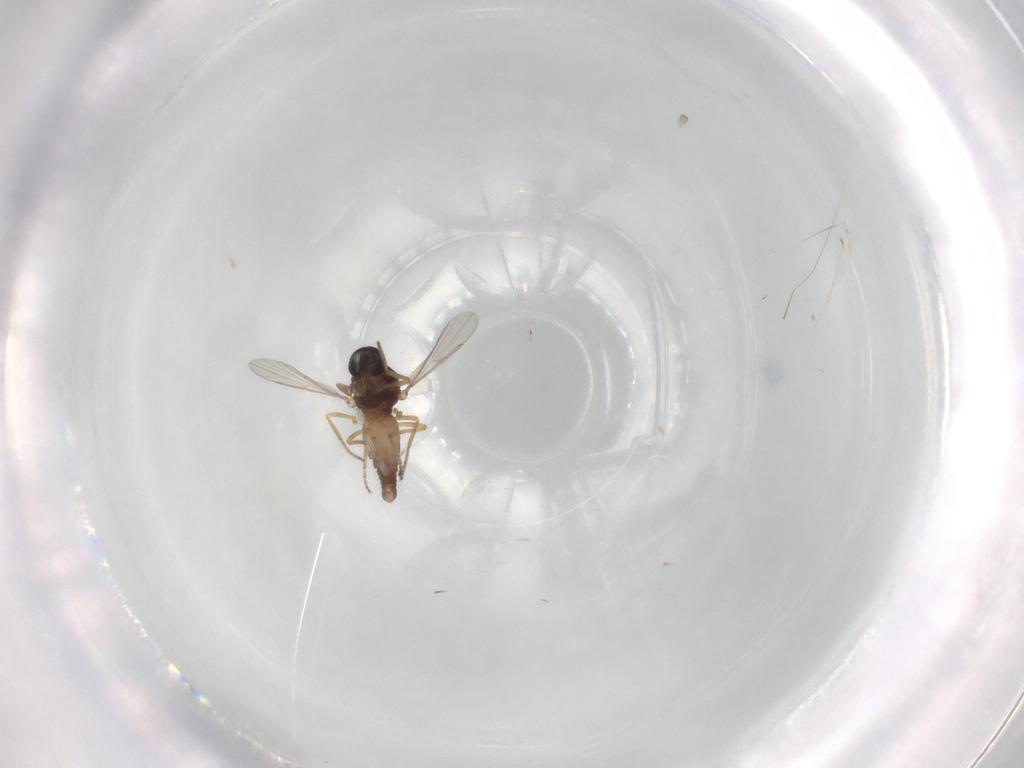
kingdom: Animalia
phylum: Arthropoda
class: Insecta
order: Diptera
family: Ceratopogonidae
